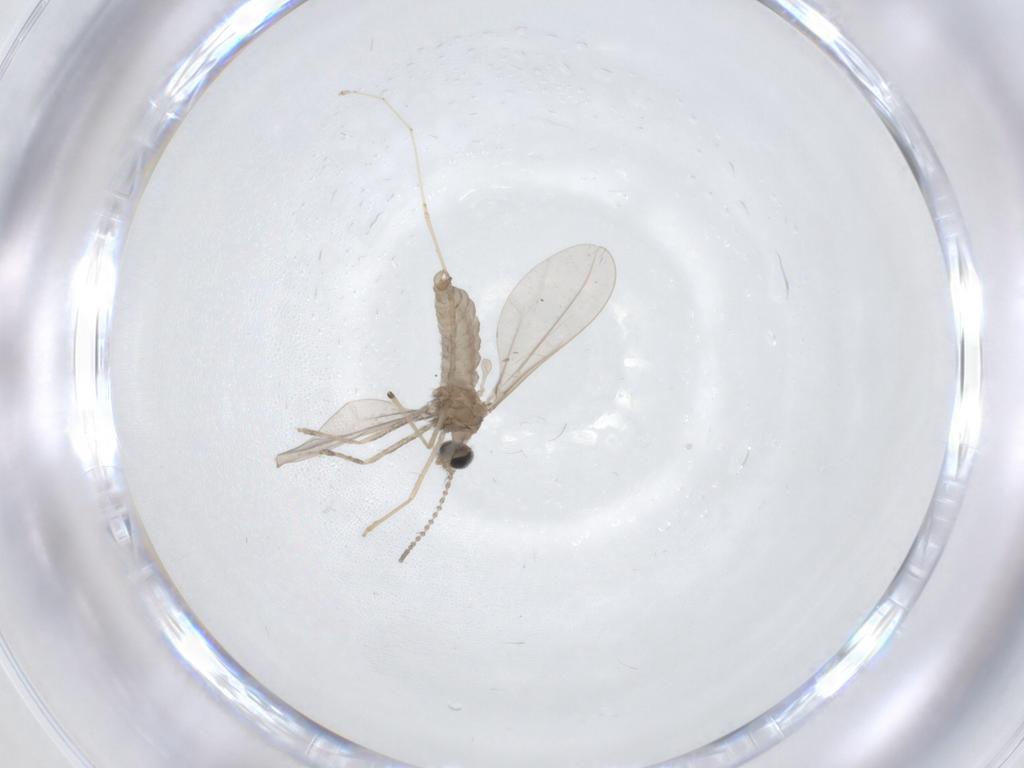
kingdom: Animalia
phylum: Arthropoda
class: Insecta
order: Diptera
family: Cecidomyiidae
